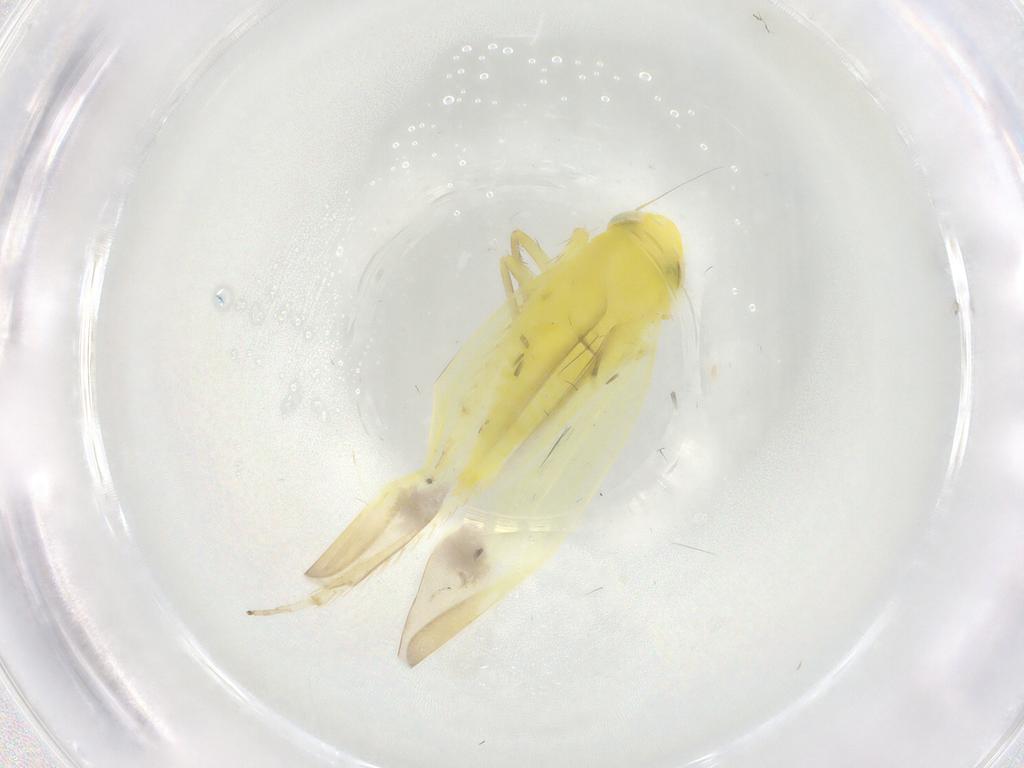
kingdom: Animalia
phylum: Arthropoda
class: Insecta
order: Hemiptera
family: Cicadellidae
